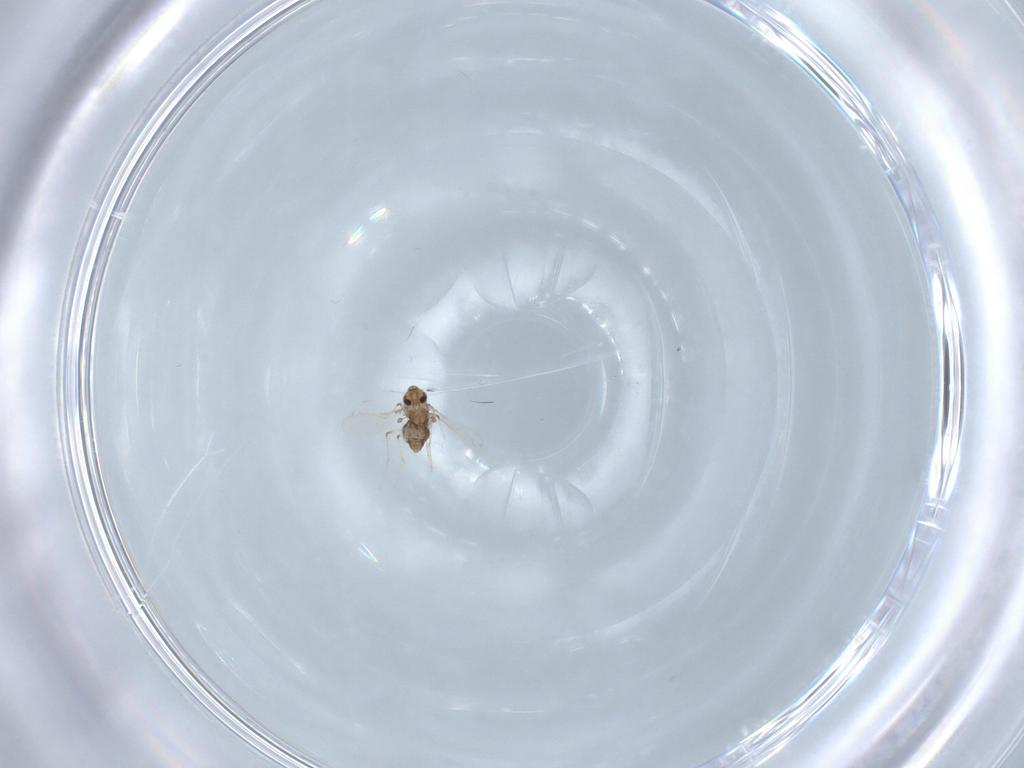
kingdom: Animalia
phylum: Arthropoda
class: Insecta
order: Diptera
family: Chironomidae
